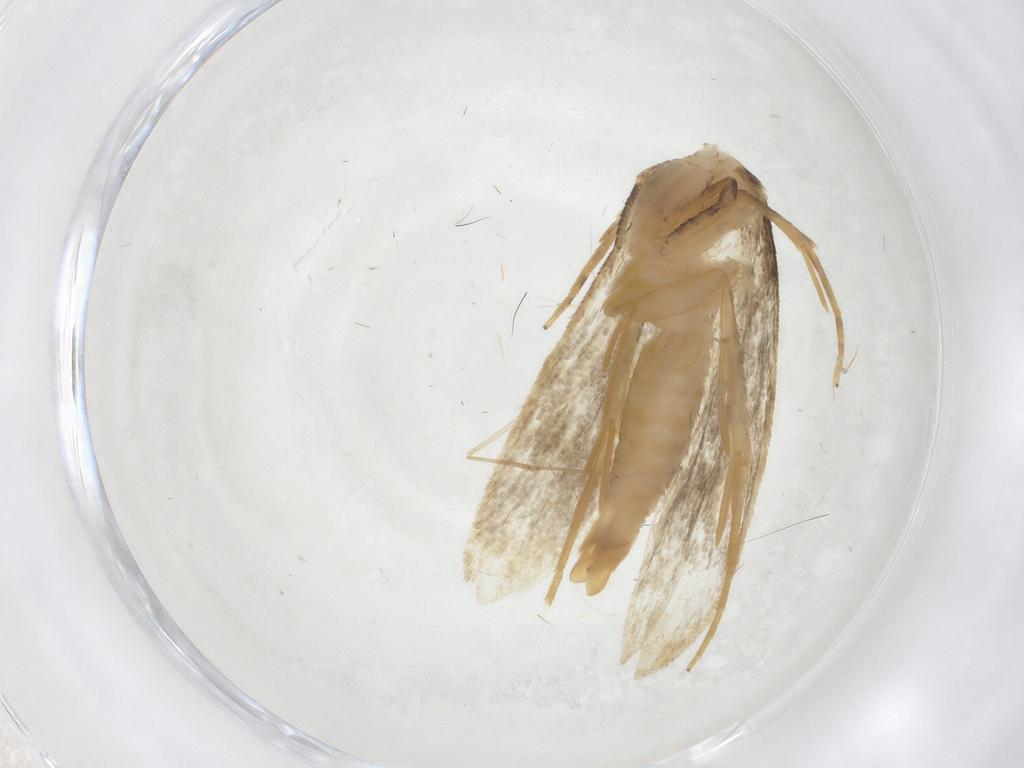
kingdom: Animalia
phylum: Arthropoda
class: Insecta
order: Lepidoptera
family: Tineidae
